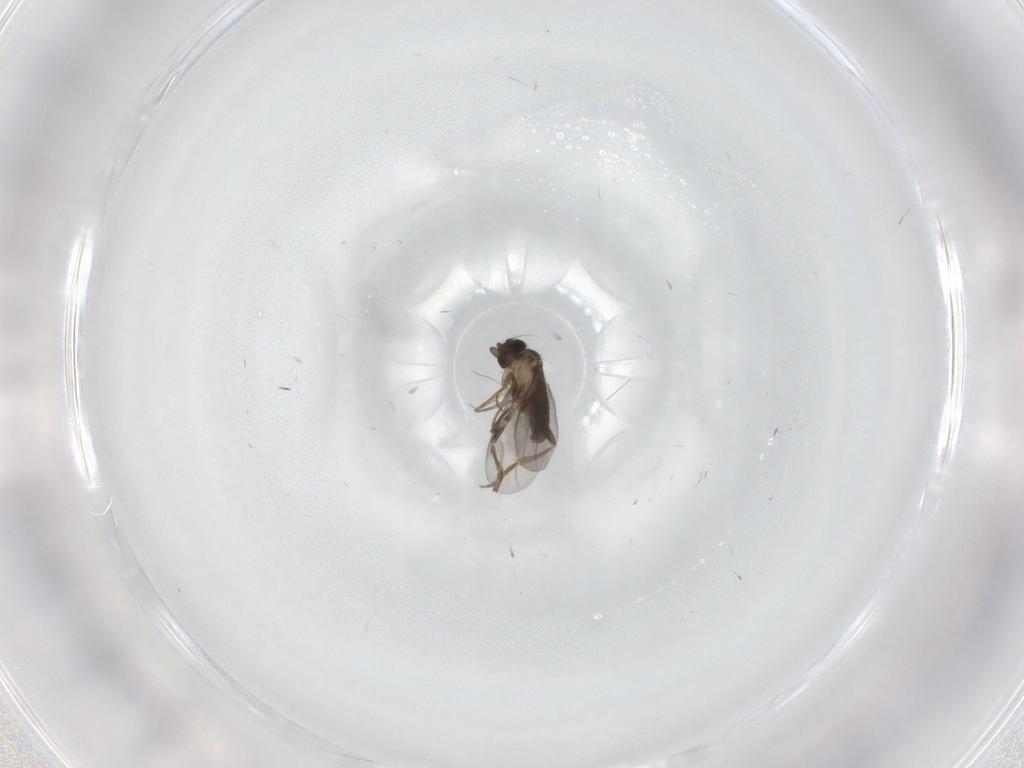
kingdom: Animalia
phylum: Arthropoda
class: Insecta
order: Diptera
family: Cecidomyiidae
